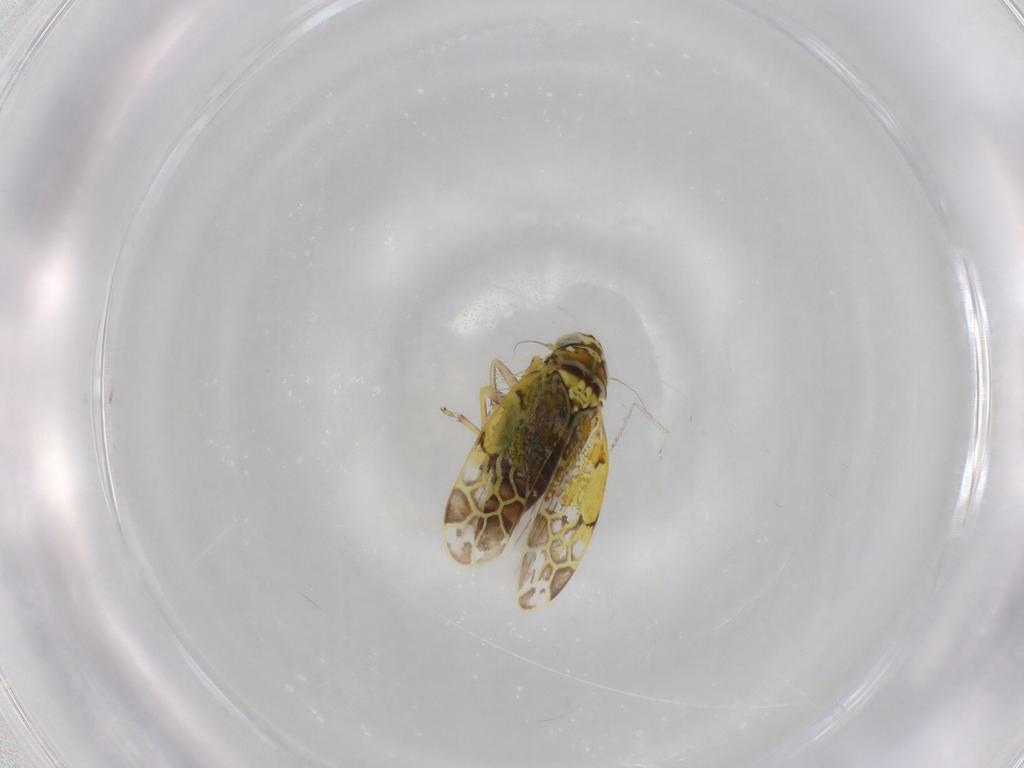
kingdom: Animalia
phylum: Arthropoda
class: Insecta
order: Hemiptera
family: Cicadellidae
